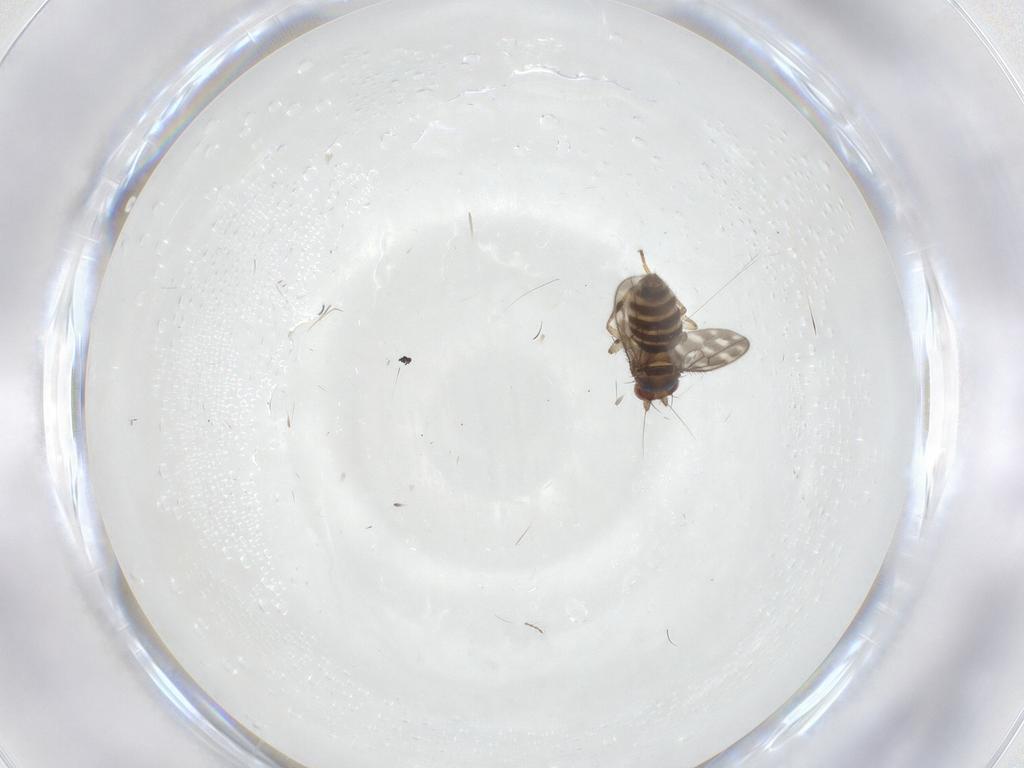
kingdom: Animalia
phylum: Arthropoda
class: Insecta
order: Diptera
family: Sphaeroceridae
